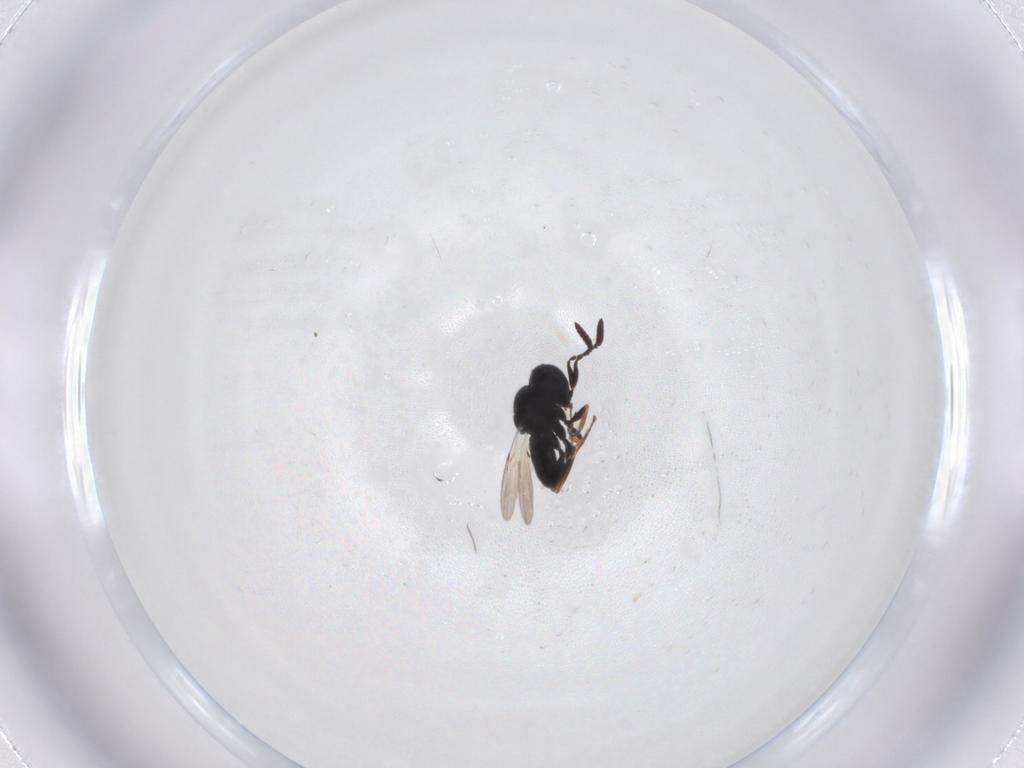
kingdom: Animalia
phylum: Arthropoda
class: Insecta
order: Hymenoptera
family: Scelionidae
